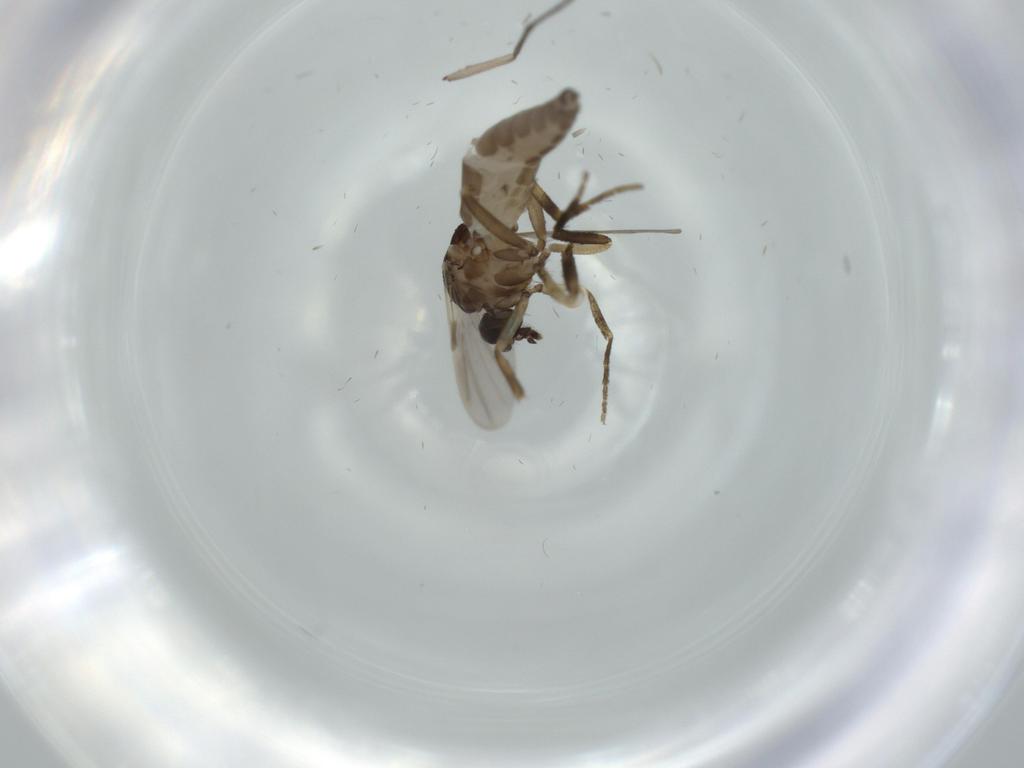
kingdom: Animalia
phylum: Arthropoda
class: Insecta
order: Diptera
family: Ceratopogonidae
